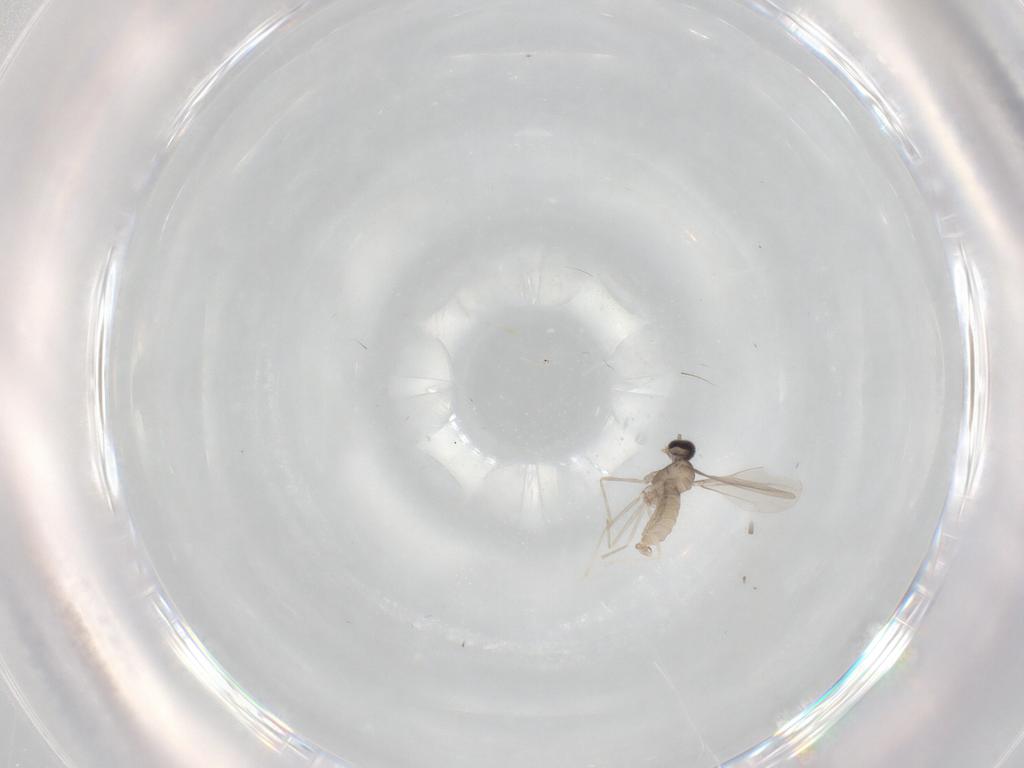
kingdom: Animalia
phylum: Arthropoda
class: Insecta
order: Diptera
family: Cecidomyiidae
